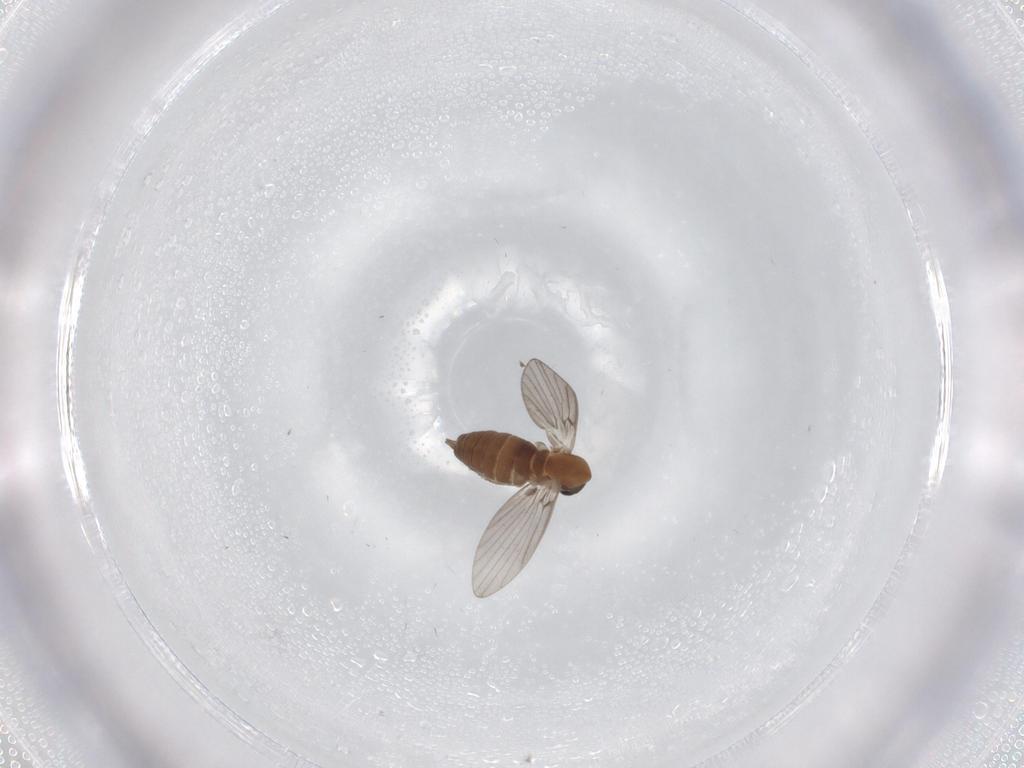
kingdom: Animalia
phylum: Arthropoda
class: Insecta
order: Diptera
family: Psychodidae
